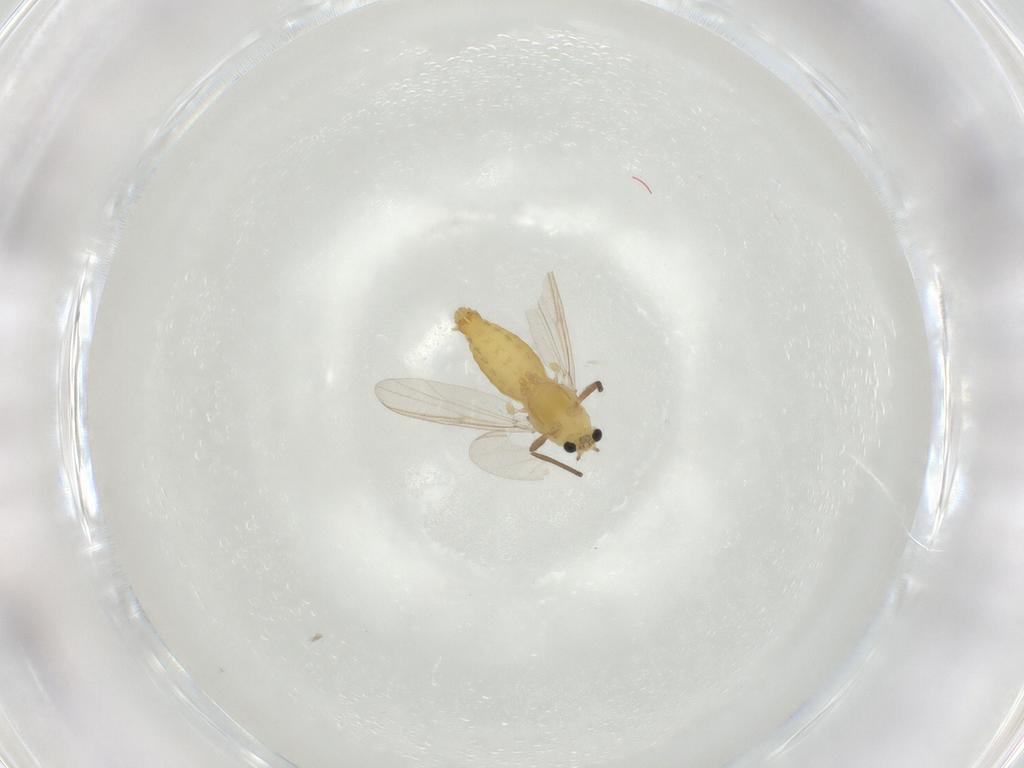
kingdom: Animalia
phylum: Arthropoda
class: Insecta
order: Diptera
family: Chironomidae
